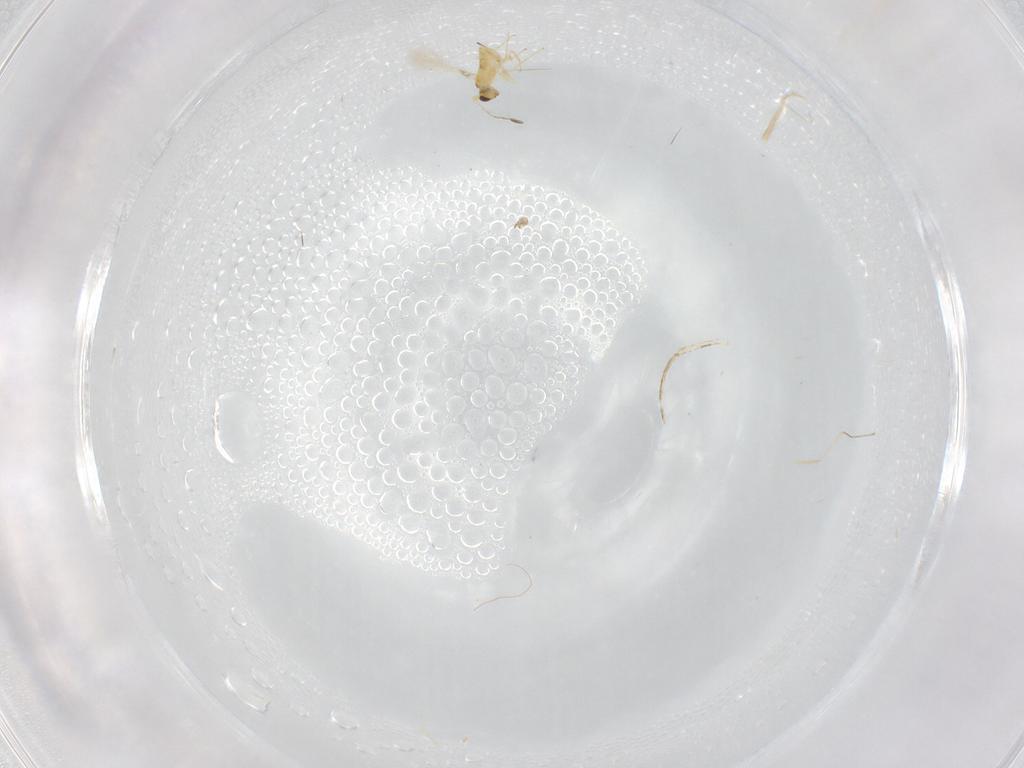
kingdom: Animalia
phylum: Arthropoda
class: Insecta
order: Hymenoptera
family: Mymaridae
